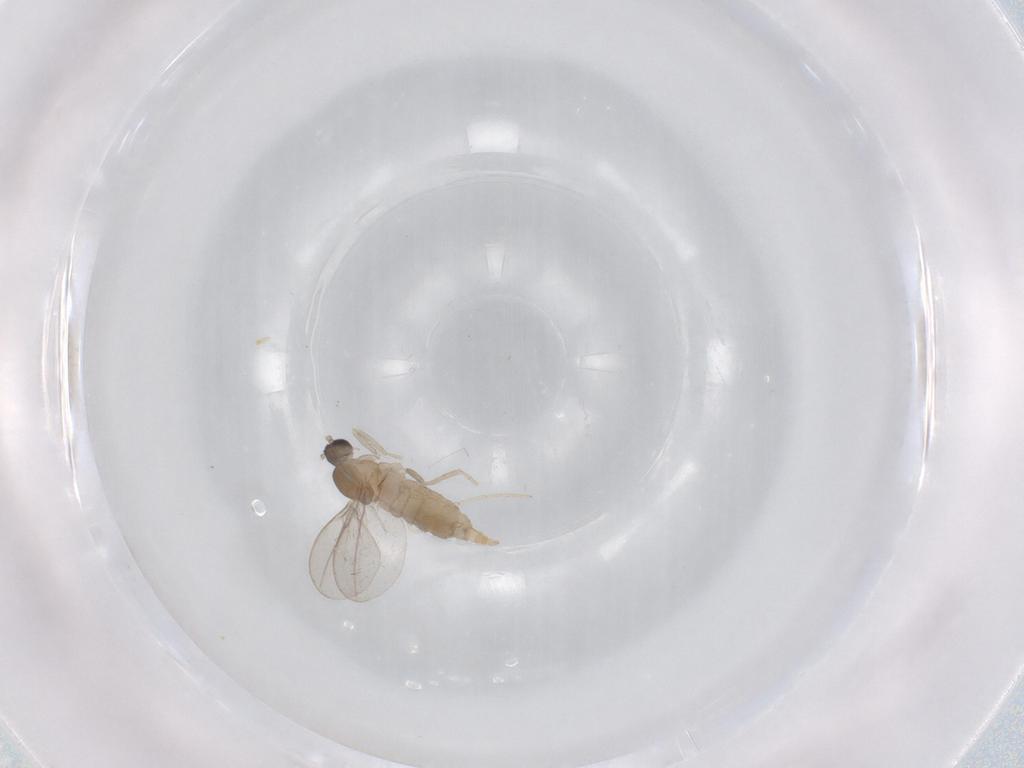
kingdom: Animalia
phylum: Arthropoda
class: Insecta
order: Diptera
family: Cecidomyiidae
